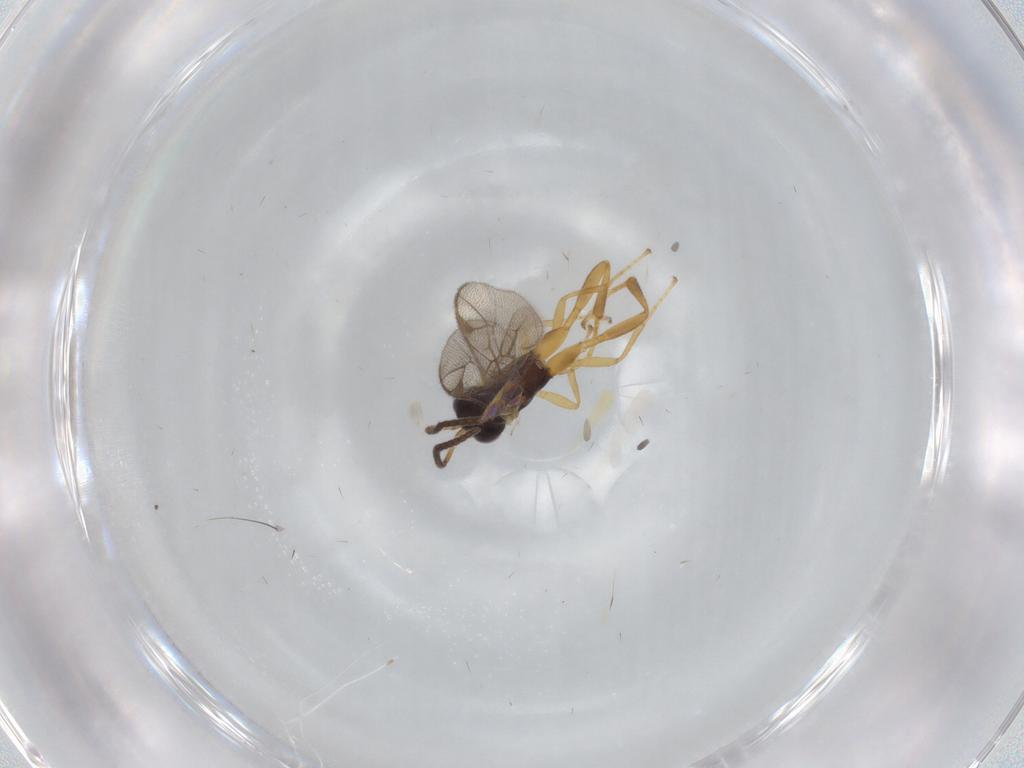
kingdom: Animalia
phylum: Arthropoda
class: Insecta
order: Hymenoptera
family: Ichneumonidae
